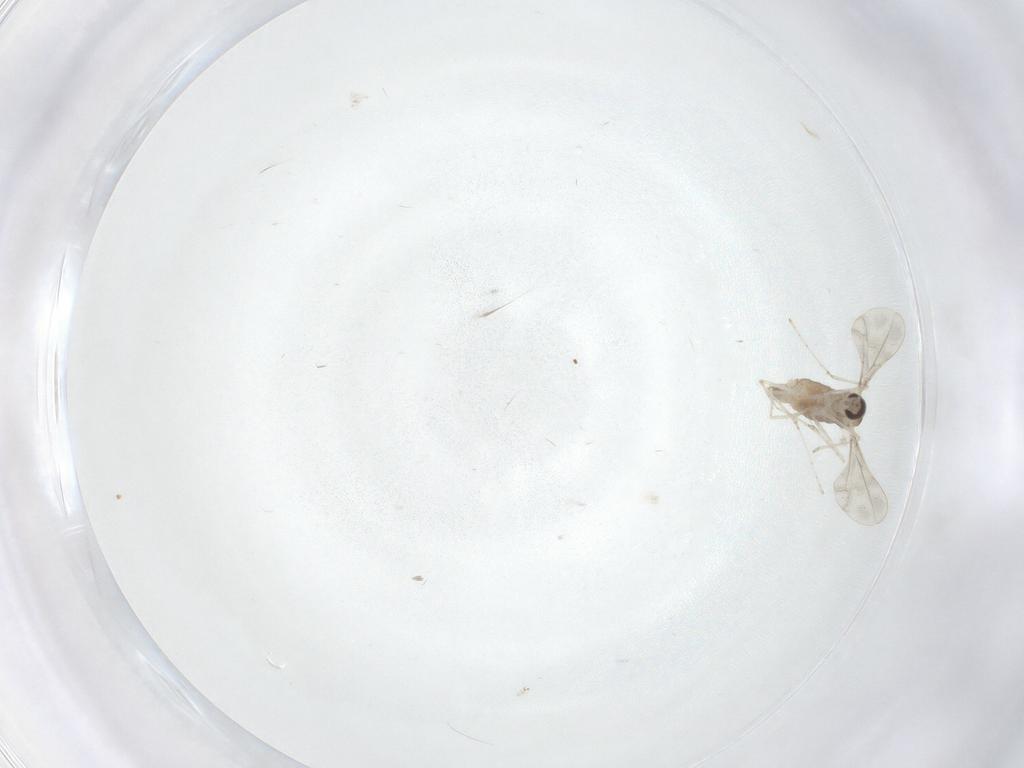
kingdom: Animalia
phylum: Arthropoda
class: Insecta
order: Diptera
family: Cecidomyiidae
